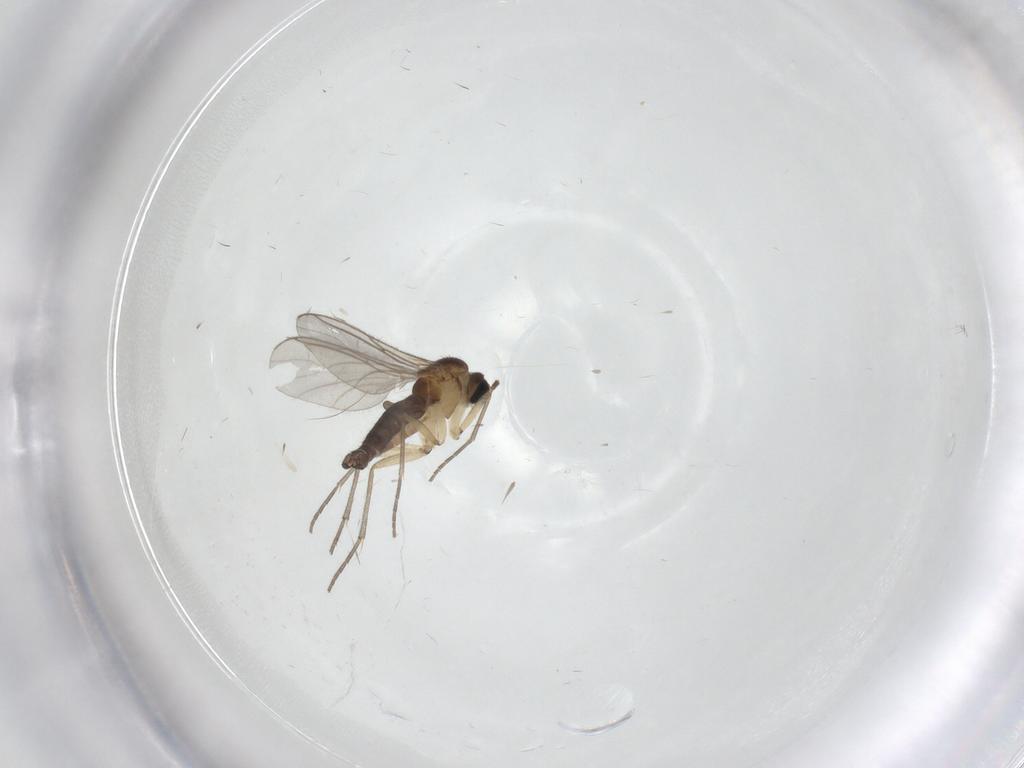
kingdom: Animalia
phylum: Arthropoda
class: Insecta
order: Diptera
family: Sciaridae
